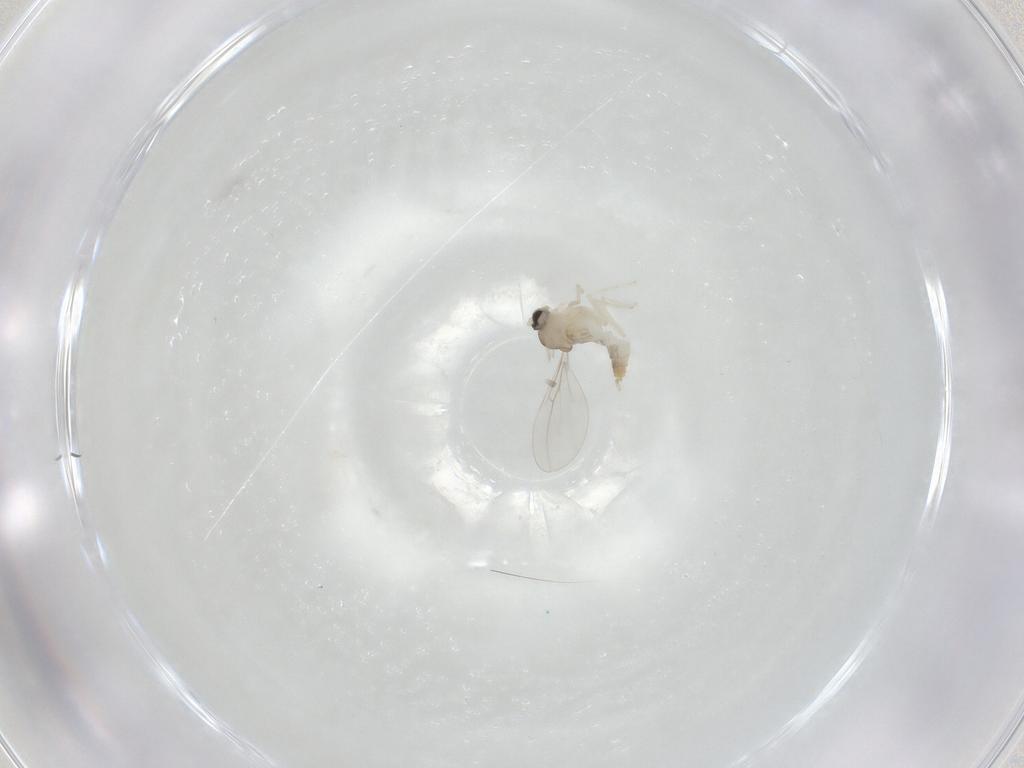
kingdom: Animalia
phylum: Arthropoda
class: Insecta
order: Diptera
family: Cecidomyiidae
